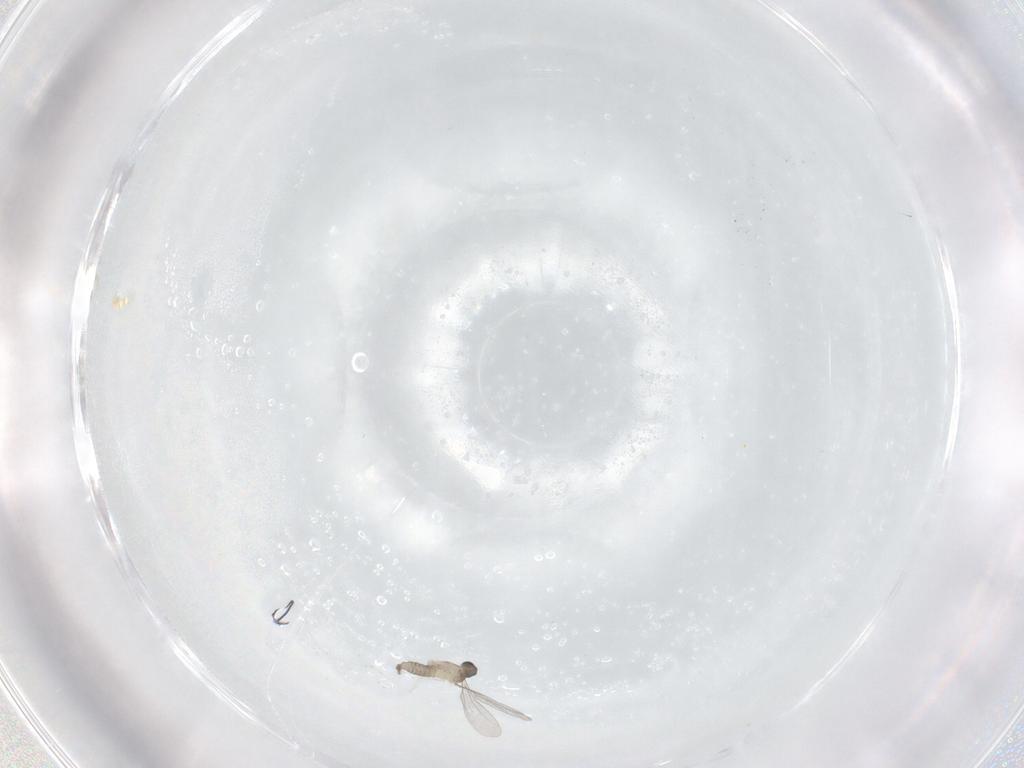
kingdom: Animalia
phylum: Arthropoda
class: Insecta
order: Diptera
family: Cecidomyiidae
